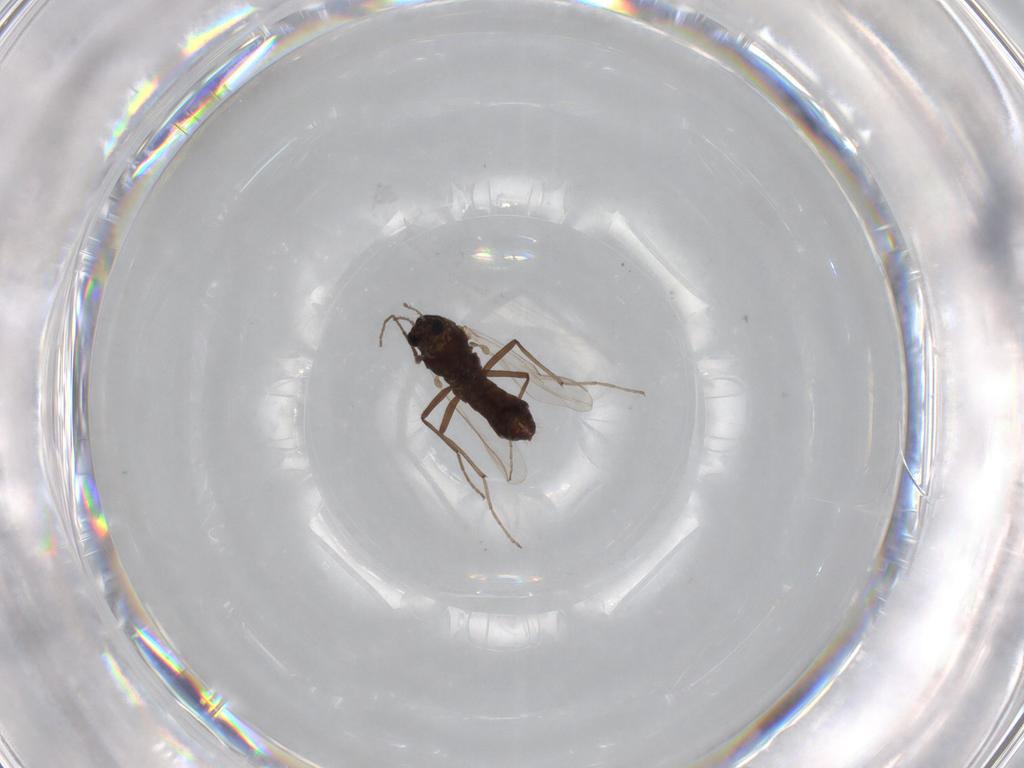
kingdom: Animalia
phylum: Arthropoda
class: Insecta
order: Diptera
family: Chironomidae
